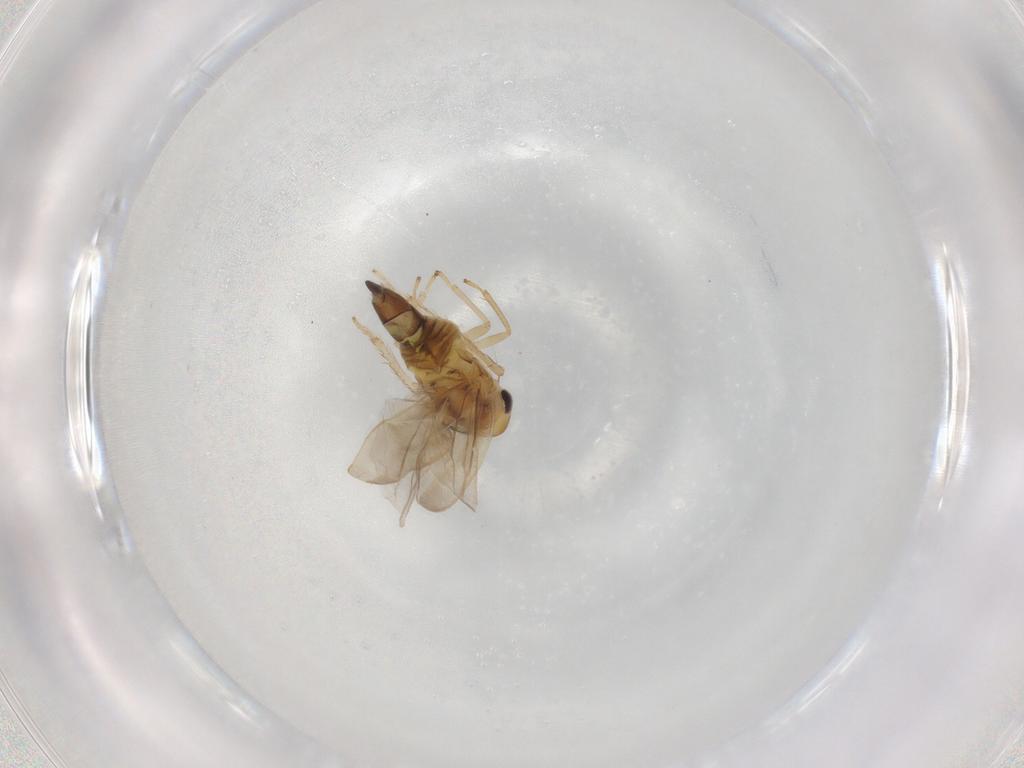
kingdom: Animalia
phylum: Arthropoda
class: Insecta
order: Hemiptera
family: Cicadellidae
